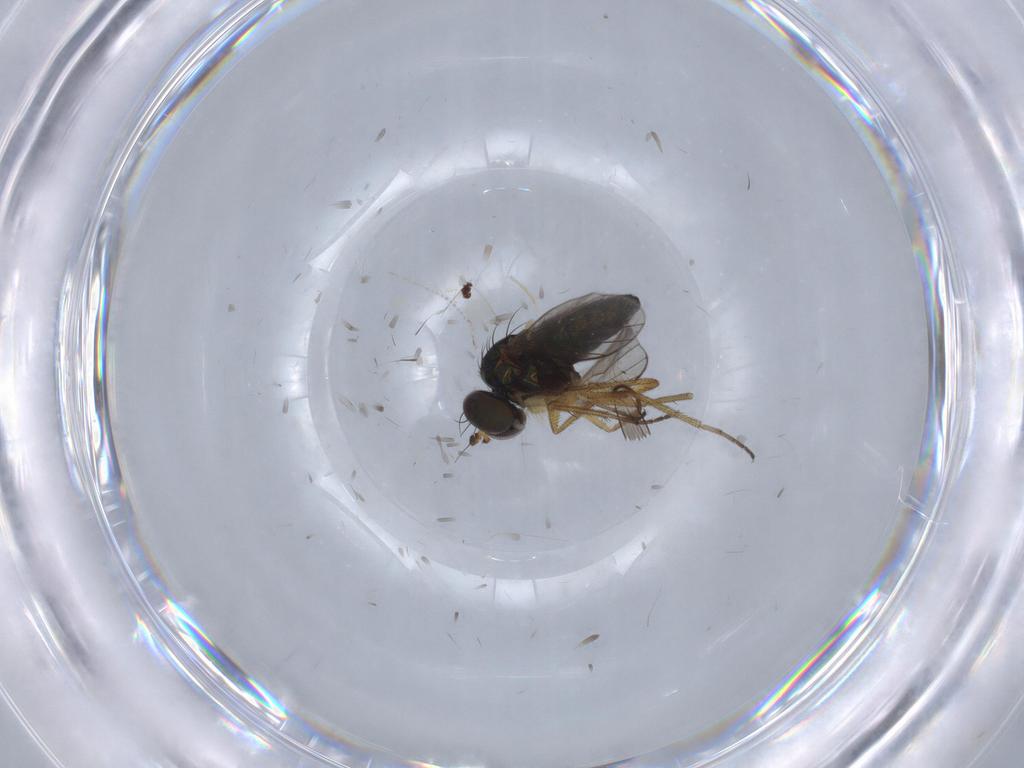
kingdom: Animalia
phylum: Arthropoda
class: Insecta
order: Diptera
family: Cecidomyiidae
